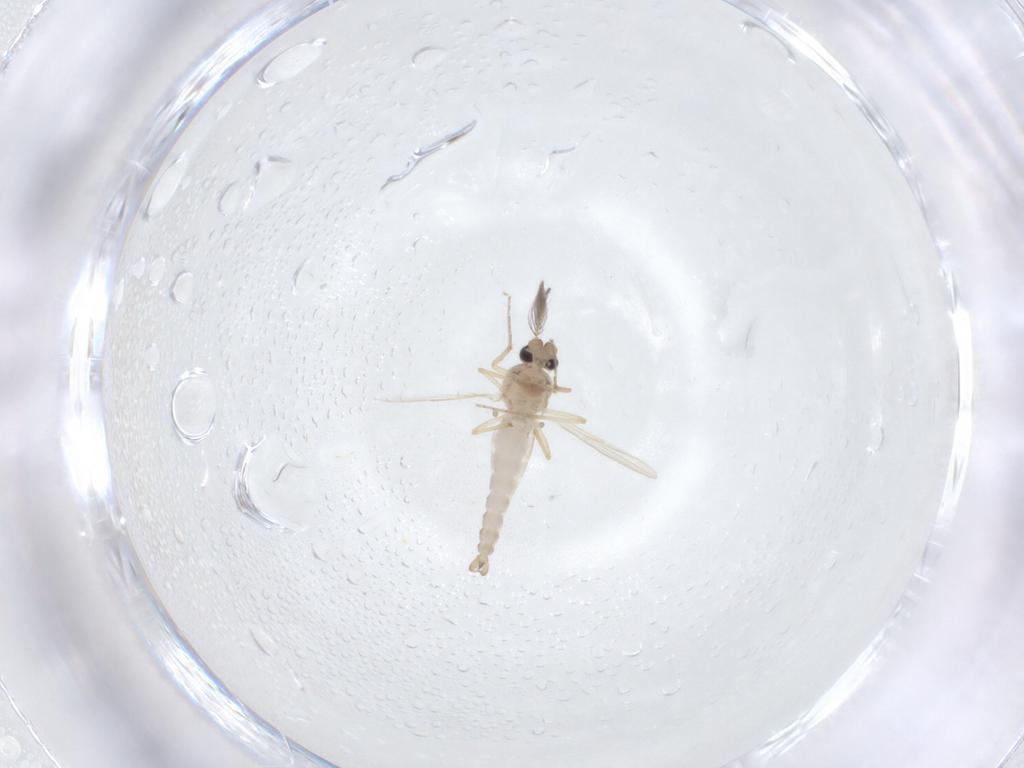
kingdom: Animalia
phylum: Arthropoda
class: Insecta
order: Diptera
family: Ceratopogonidae
